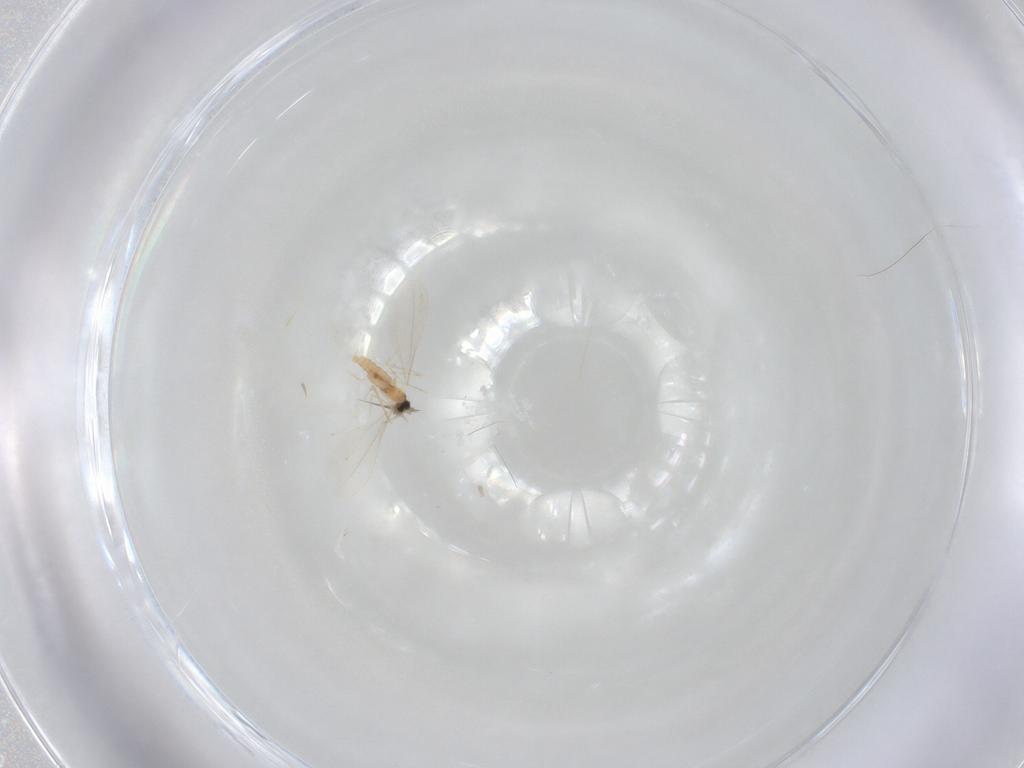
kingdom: Animalia
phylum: Arthropoda
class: Insecta
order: Diptera
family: Cecidomyiidae
